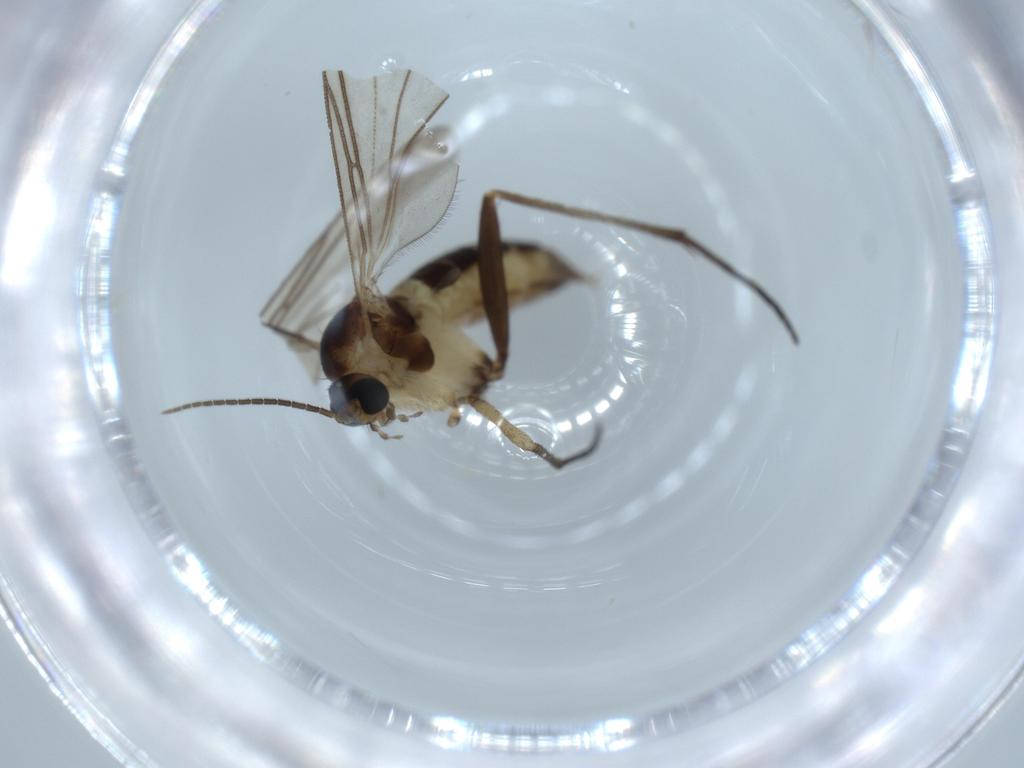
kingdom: Animalia
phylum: Arthropoda
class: Insecta
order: Diptera
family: Sciaridae
